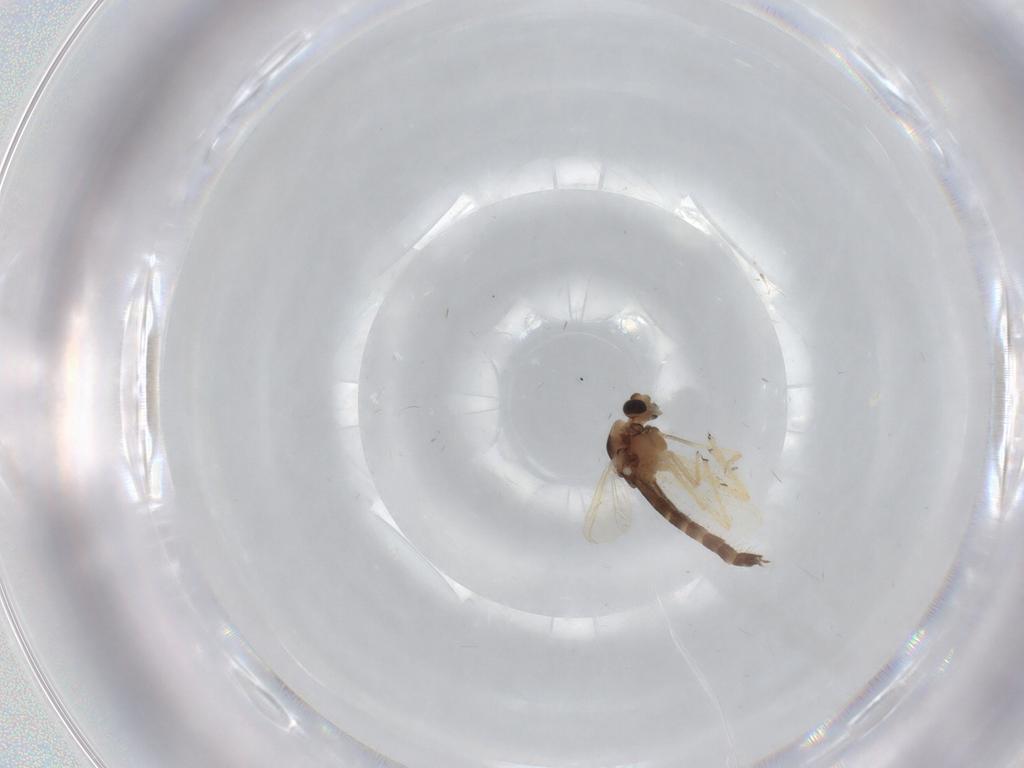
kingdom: Animalia
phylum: Arthropoda
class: Insecta
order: Diptera
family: Chironomidae
